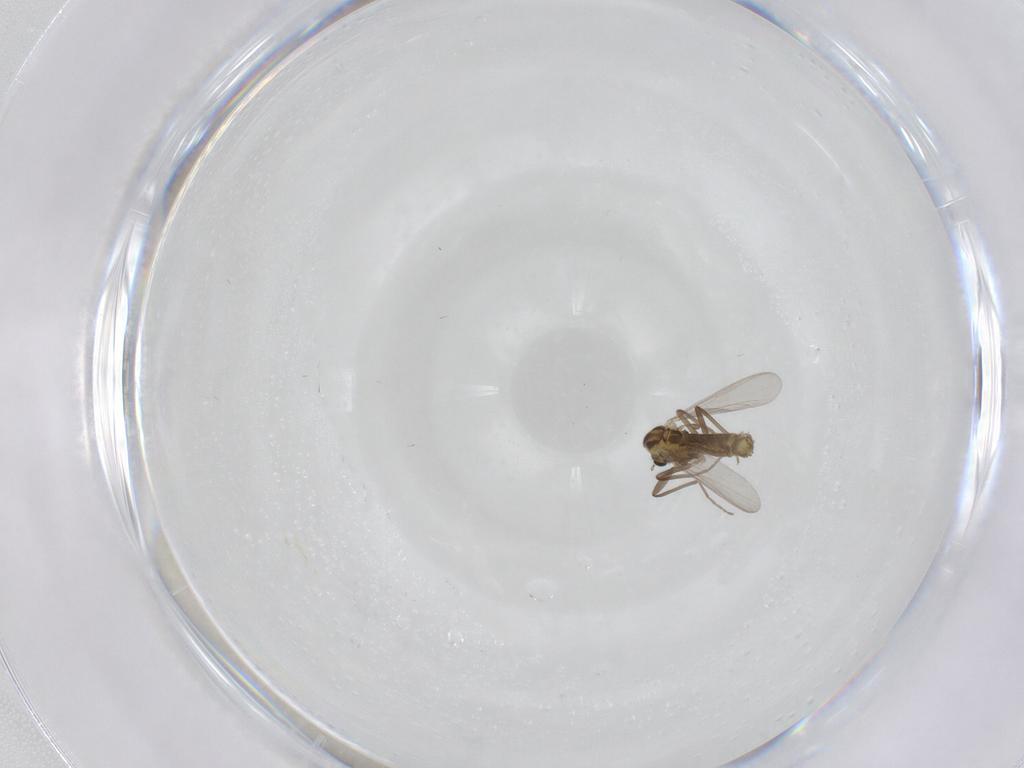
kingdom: Animalia
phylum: Arthropoda
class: Insecta
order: Diptera
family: Chironomidae
